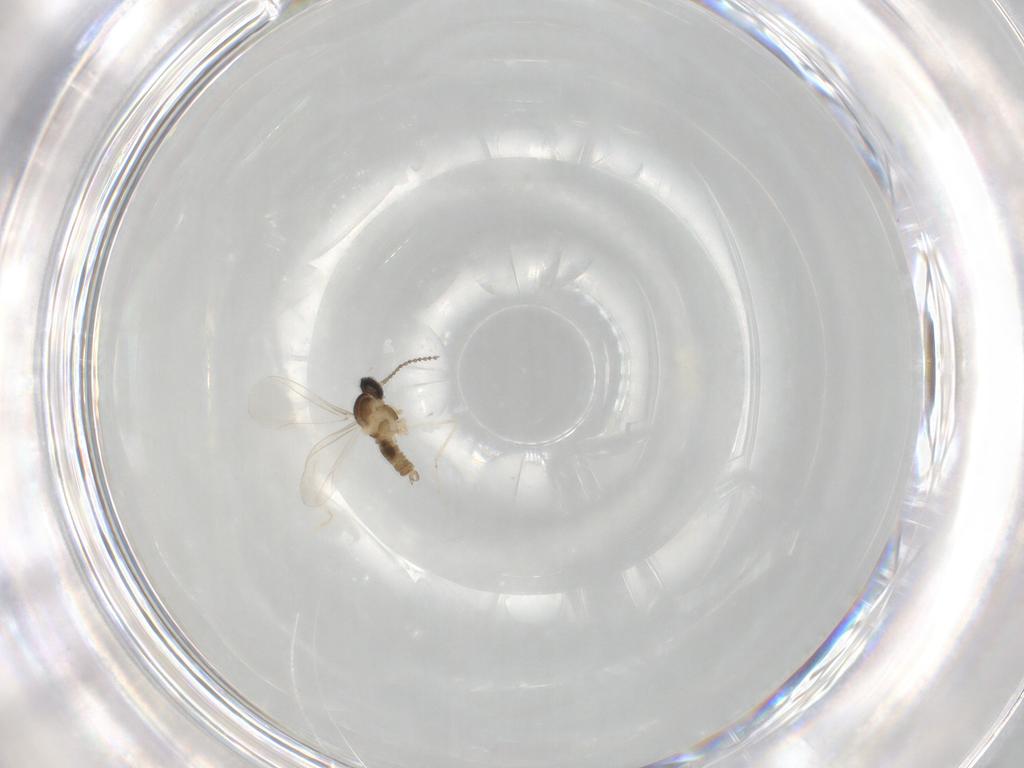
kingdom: Animalia
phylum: Arthropoda
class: Insecta
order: Diptera
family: Cecidomyiidae
